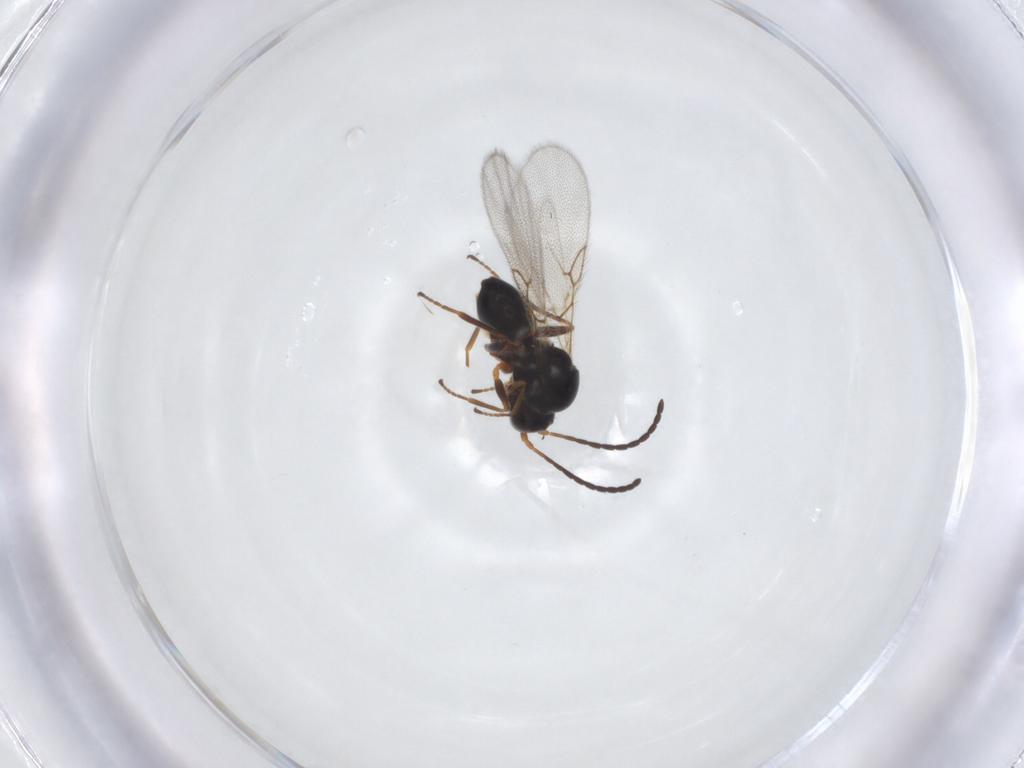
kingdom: Animalia
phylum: Arthropoda
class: Insecta
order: Hymenoptera
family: Figitidae
